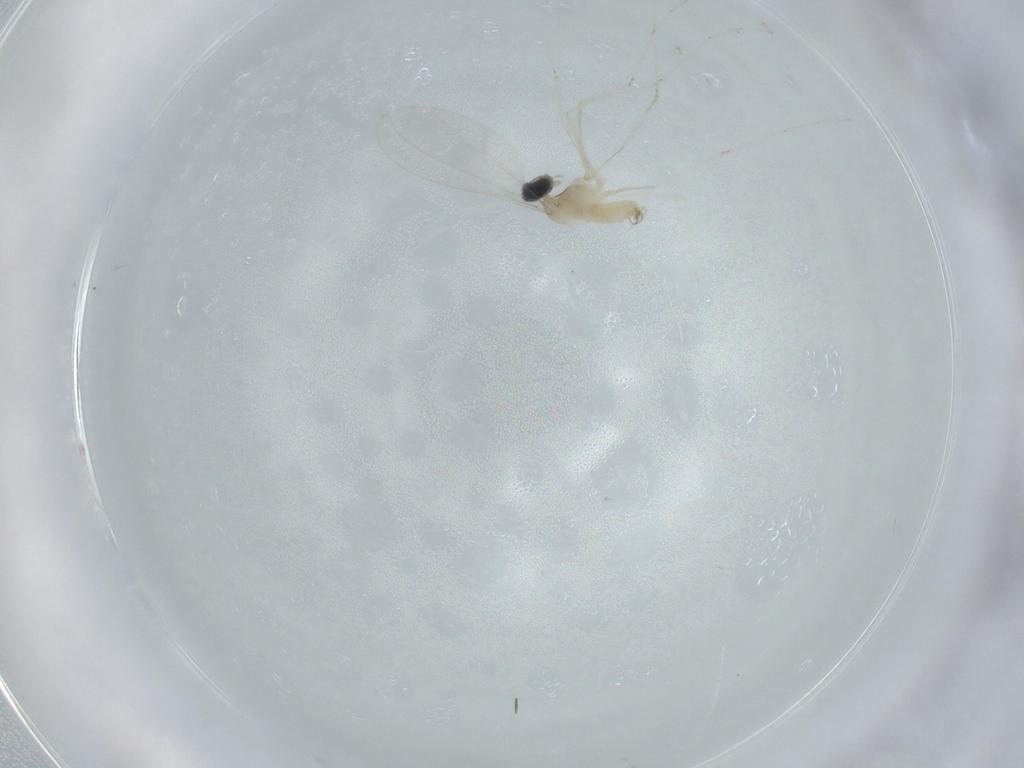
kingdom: Animalia
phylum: Arthropoda
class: Insecta
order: Diptera
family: Cecidomyiidae
